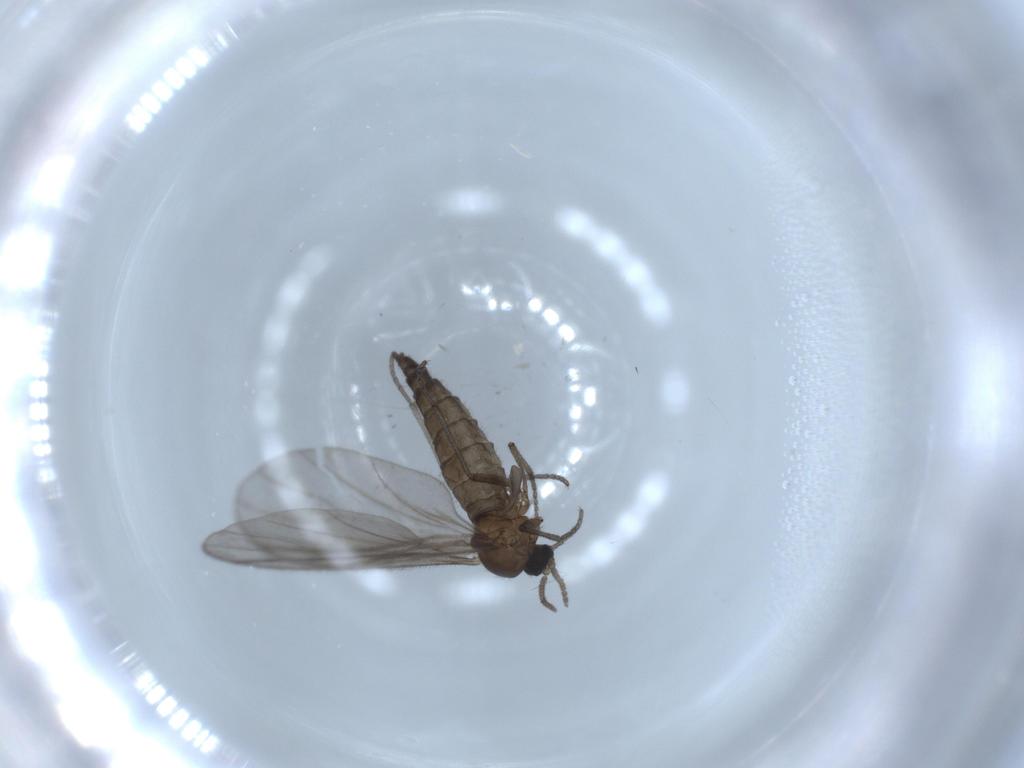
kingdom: Animalia
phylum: Arthropoda
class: Insecta
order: Diptera
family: Sciaridae
